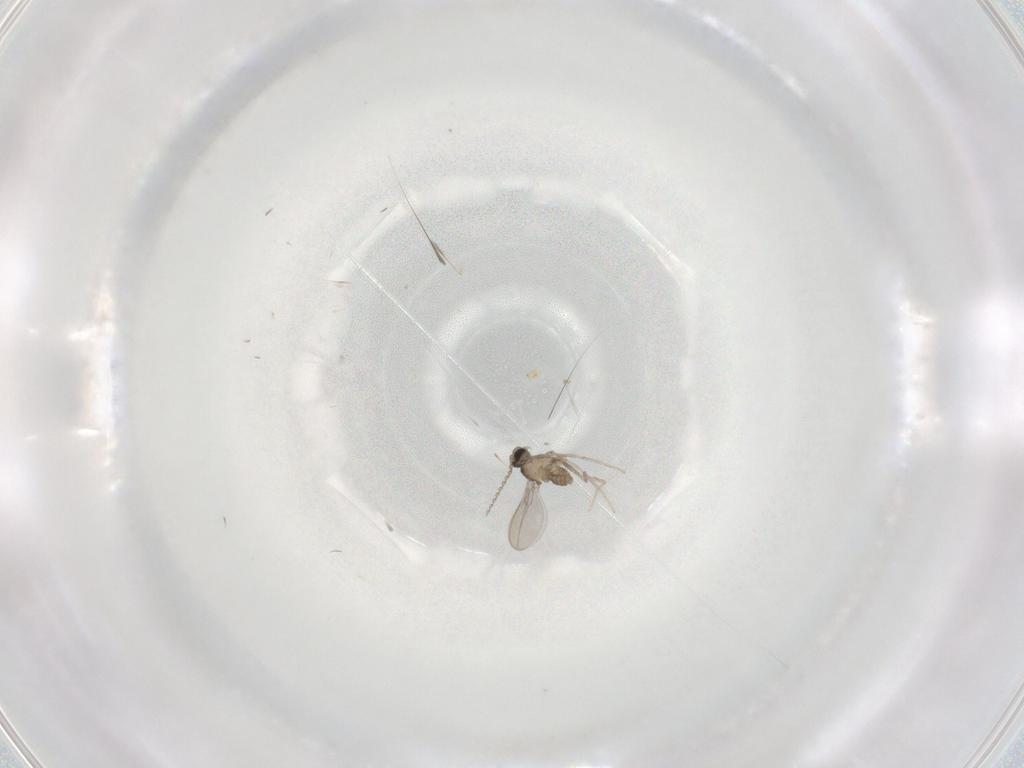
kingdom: Animalia
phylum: Arthropoda
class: Insecta
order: Diptera
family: Cecidomyiidae
